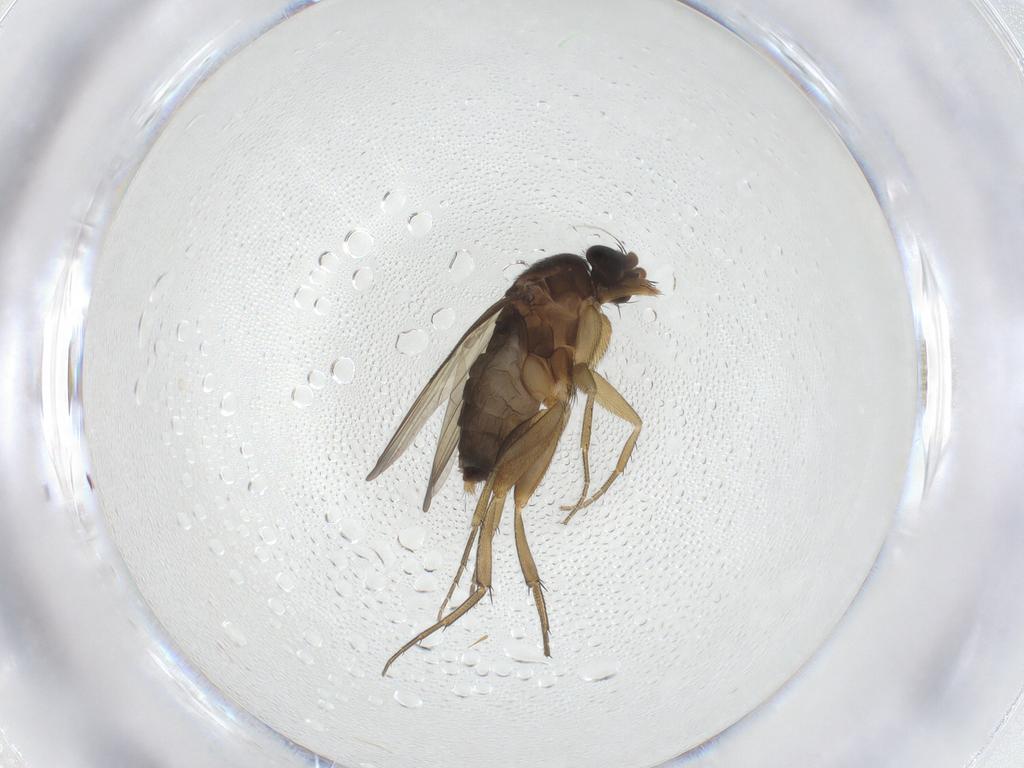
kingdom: Animalia
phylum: Arthropoda
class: Insecta
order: Diptera
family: Phoridae
